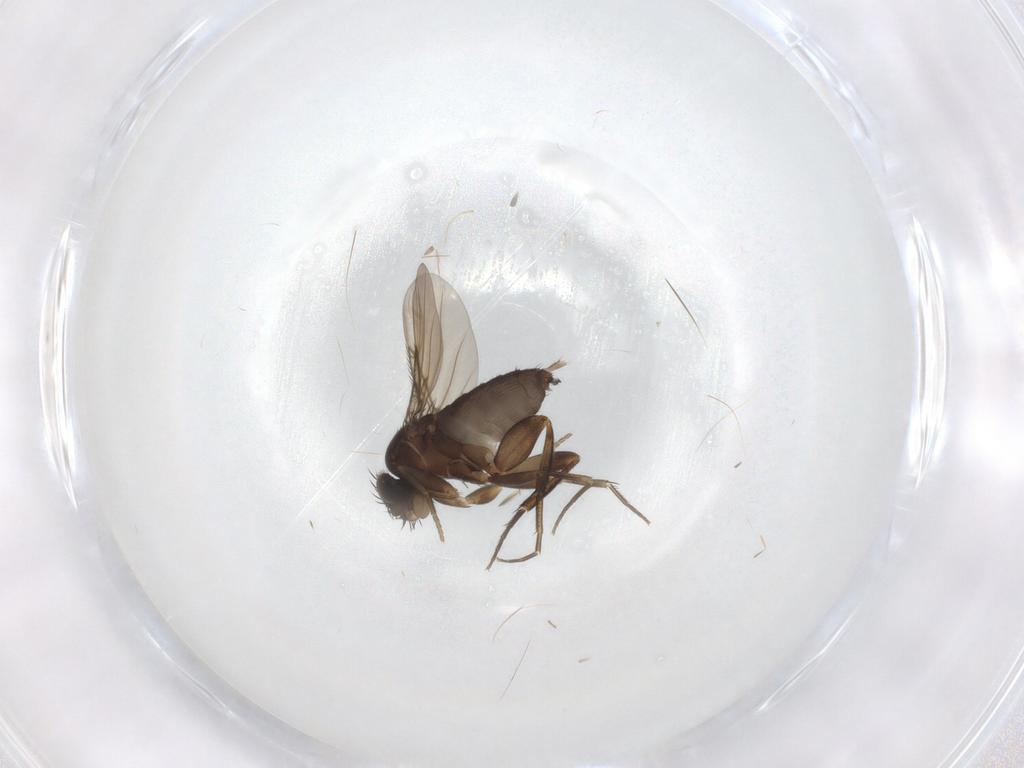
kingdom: Animalia
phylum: Arthropoda
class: Insecta
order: Diptera
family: Phoridae
